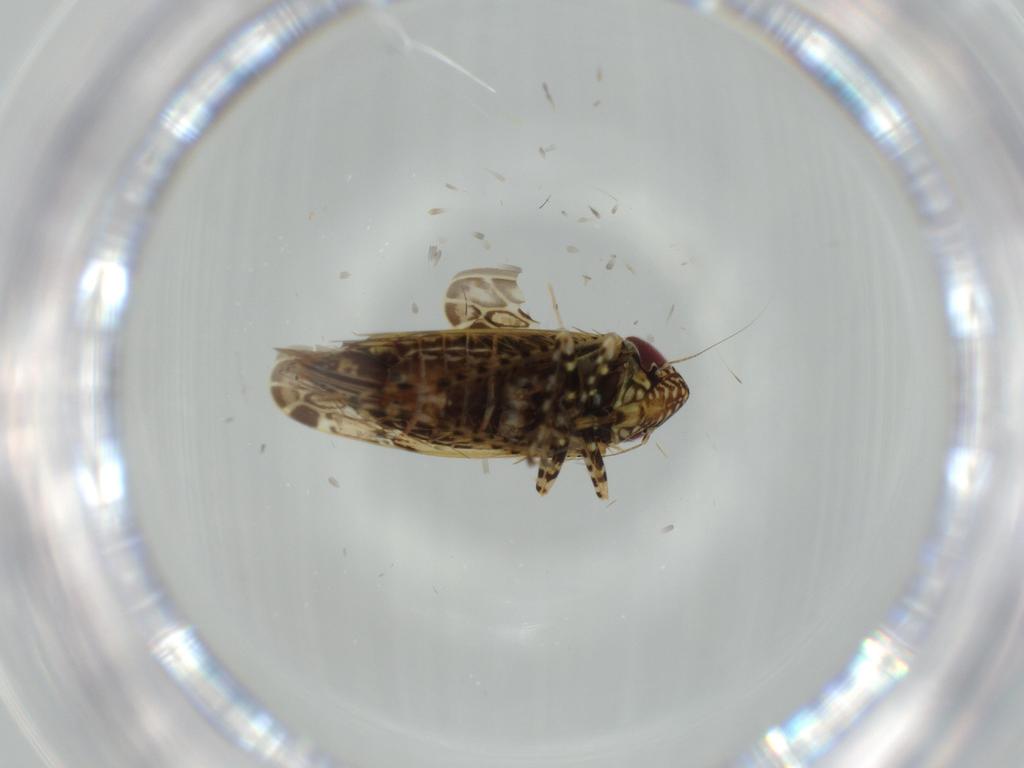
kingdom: Animalia
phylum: Arthropoda
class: Insecta
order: Hemiptera
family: Cicadellidae
